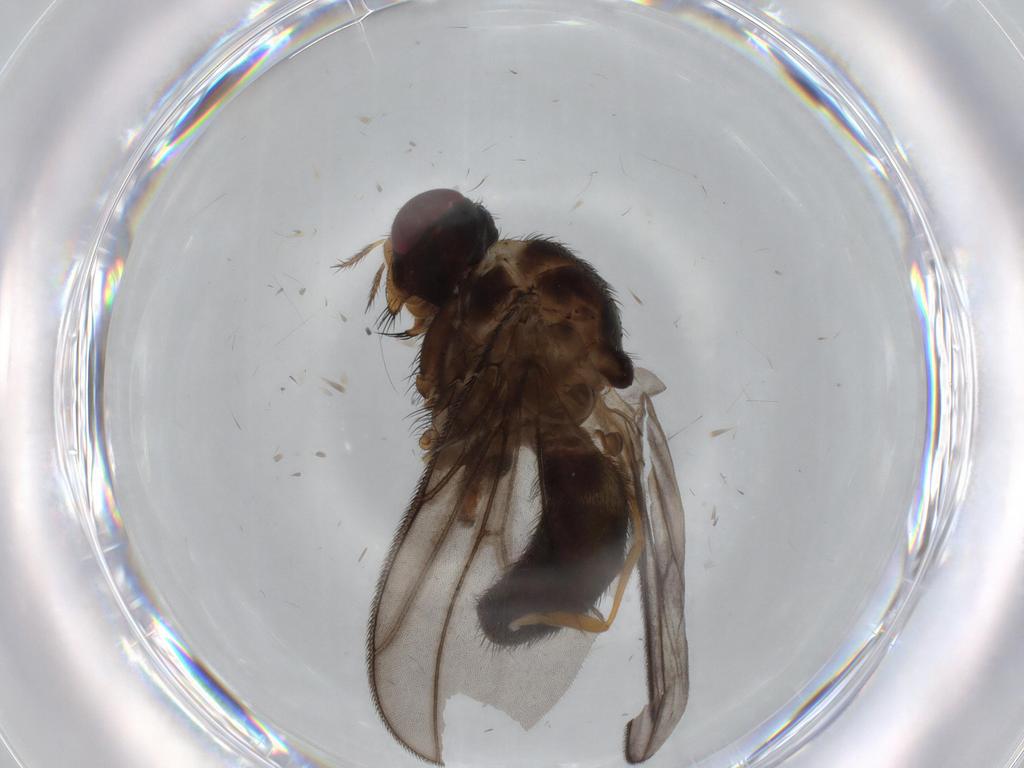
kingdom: Animalia
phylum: Arthropoda
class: Insecta
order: Diptera
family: Calliphoridae
